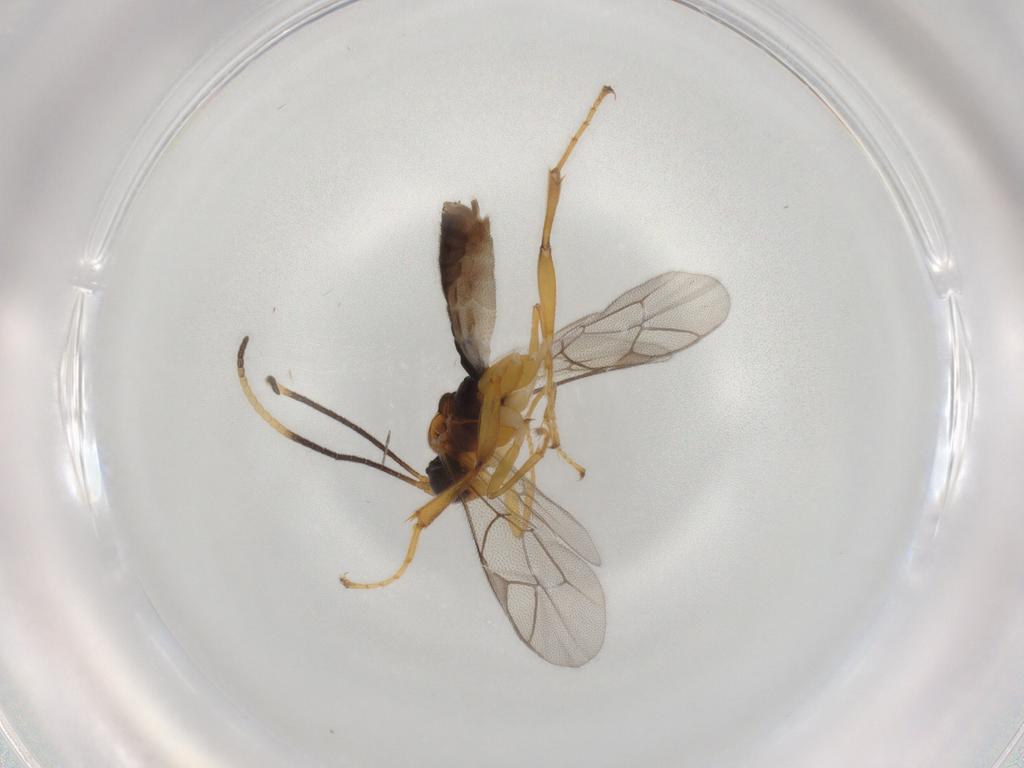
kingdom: Animalia
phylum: Arthropoda
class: Insecta
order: Hymenoptera
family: Ichneumonidae
